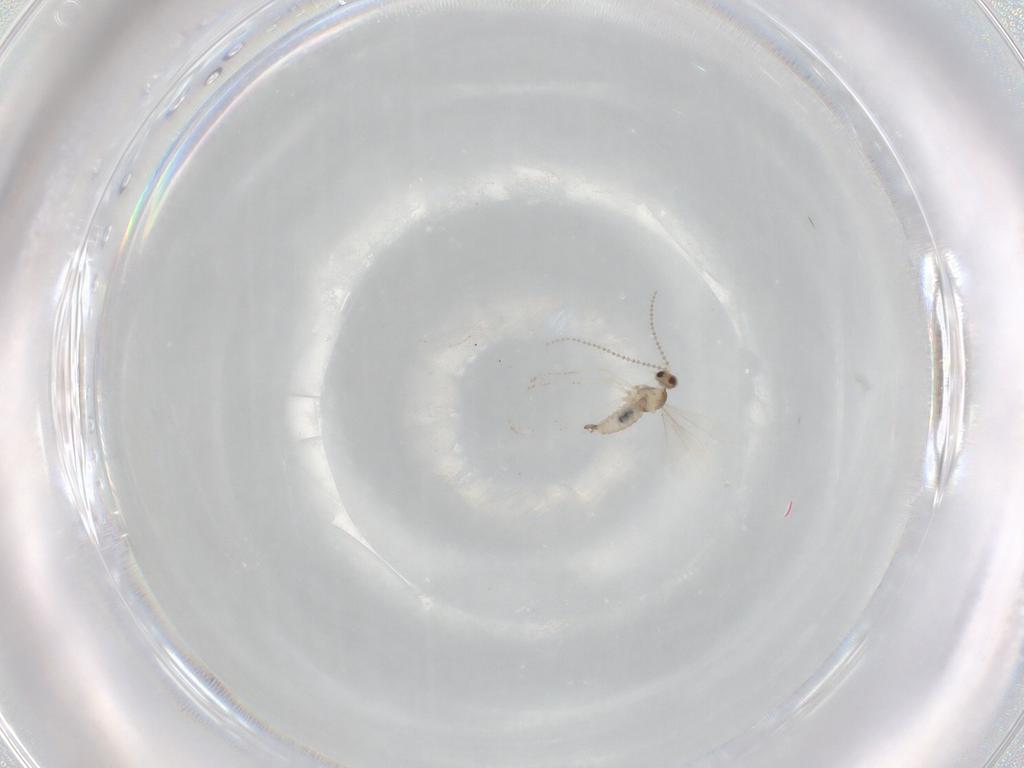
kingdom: Animalia
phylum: Arthropoda
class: Insecta
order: Diptera
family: Cecidomyiidae
